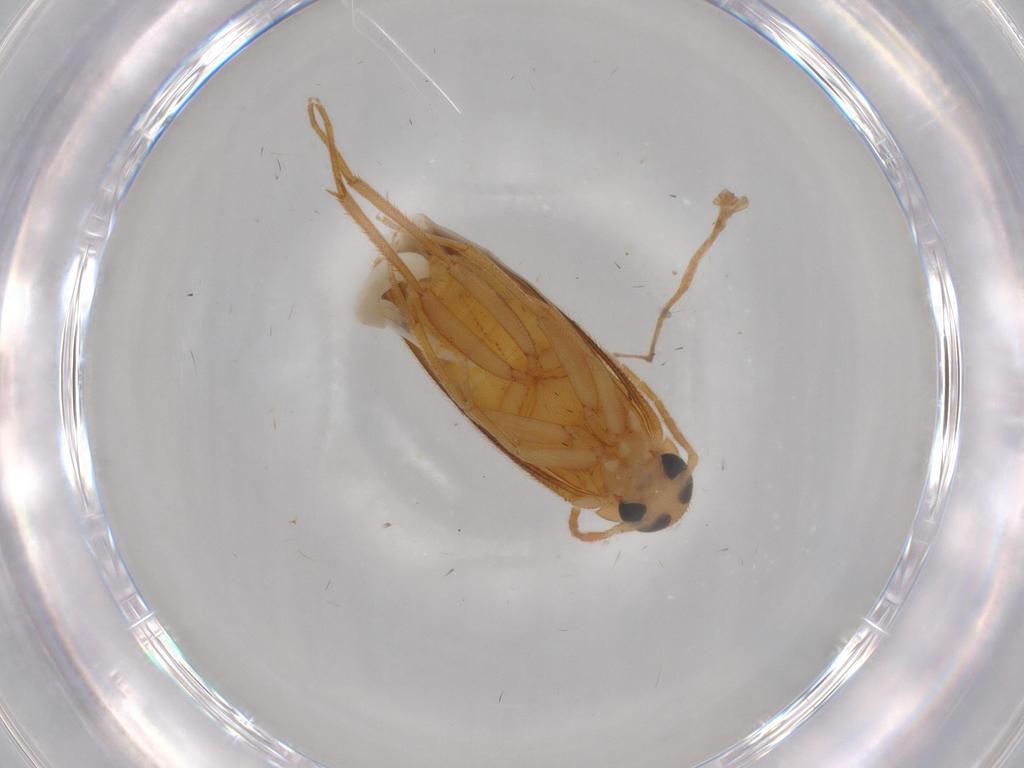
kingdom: Animalia
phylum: Arthropoda
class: Insecta
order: Coleoptera
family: Scraptiidae
